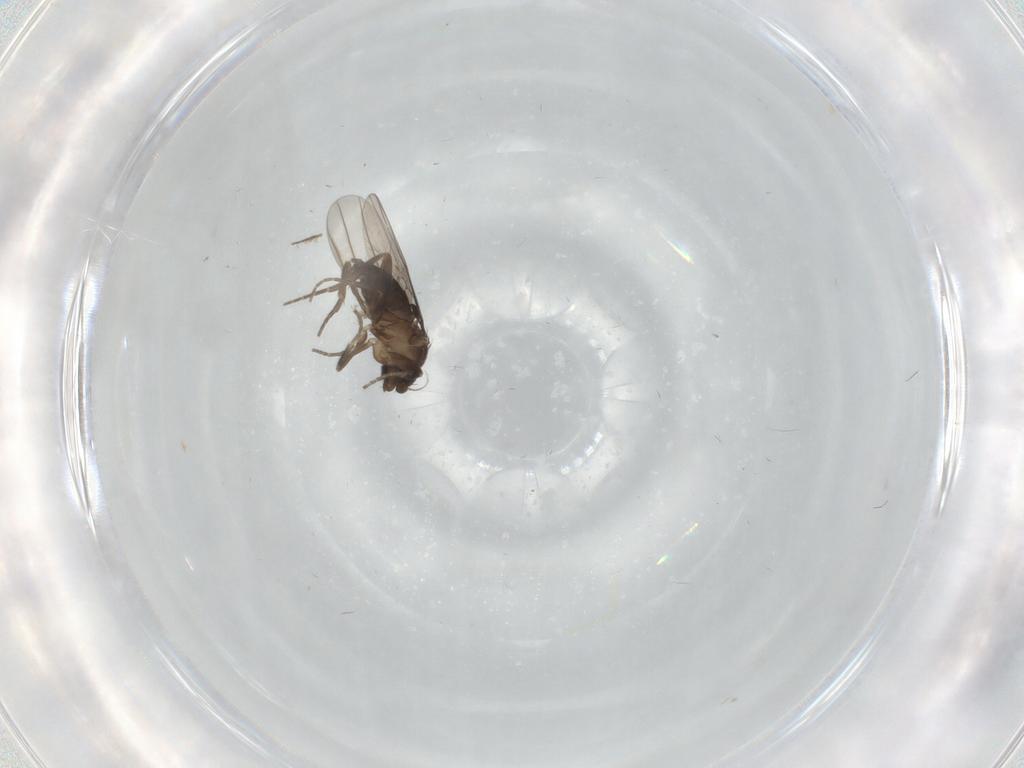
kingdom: Animalia
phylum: Arthropoda
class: Insecta
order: Diptera
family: Phoridae
